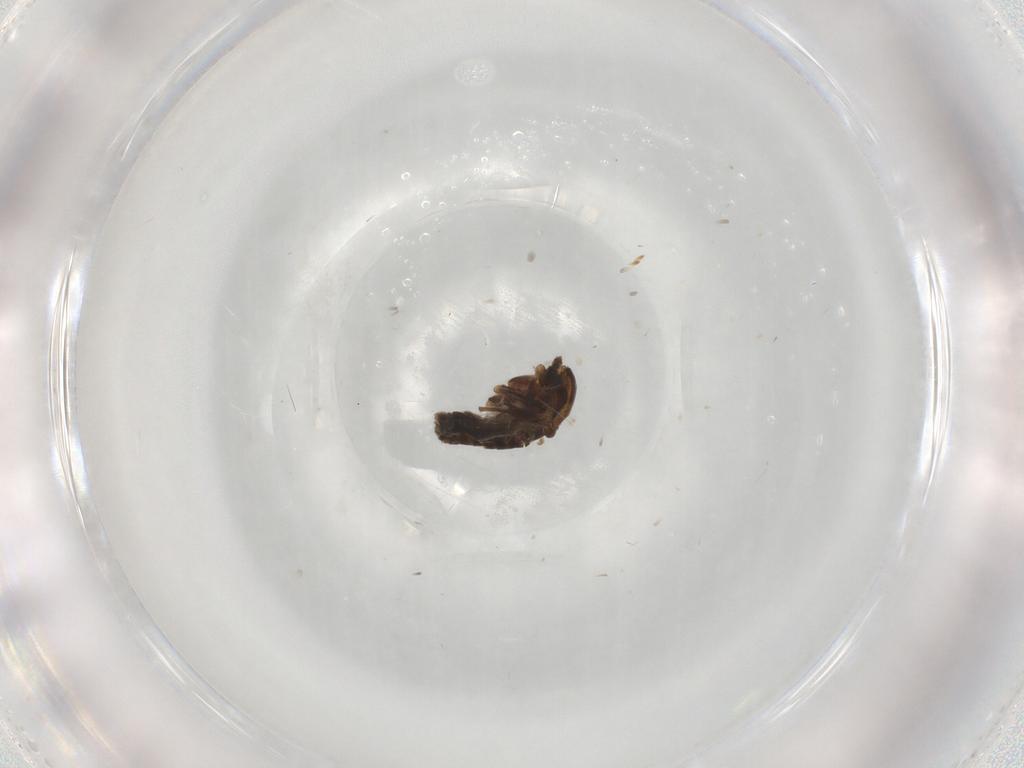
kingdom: Animalia
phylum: Arthropoda
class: Insecta
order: Diptera
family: Chironomidae
